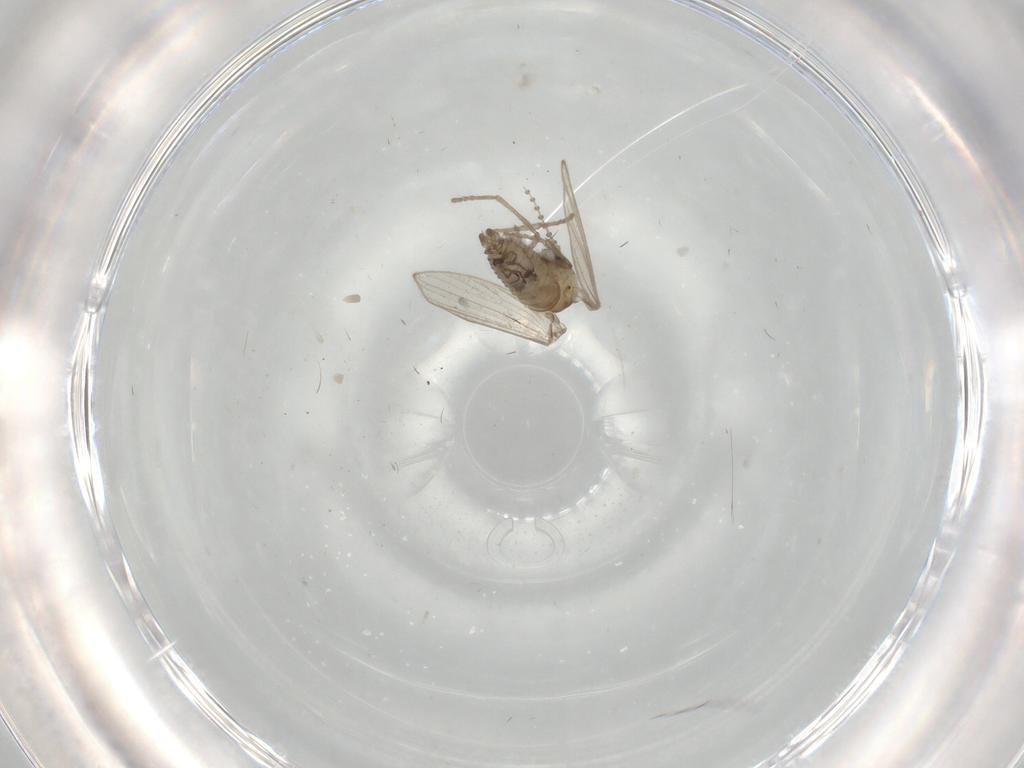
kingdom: Animalia
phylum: Arthropoda
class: Insecta
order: Diptera
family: Psychodidae
